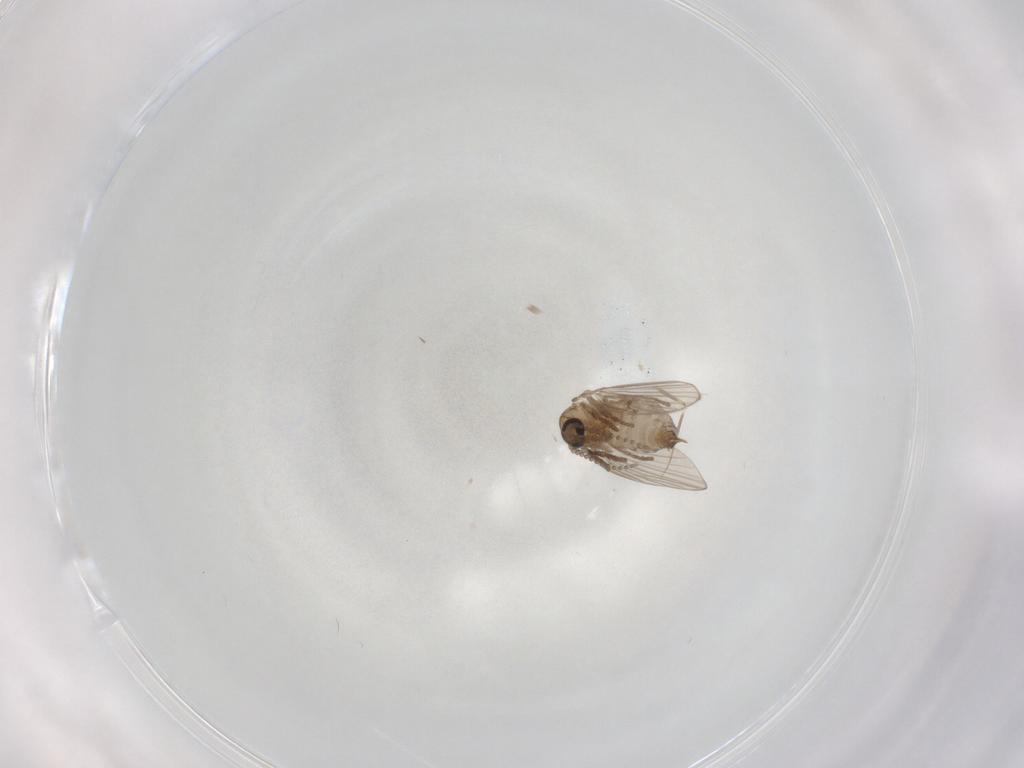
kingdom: Animalia
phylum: Arthropoda
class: Insecta
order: Diptera
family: Psychodidae
